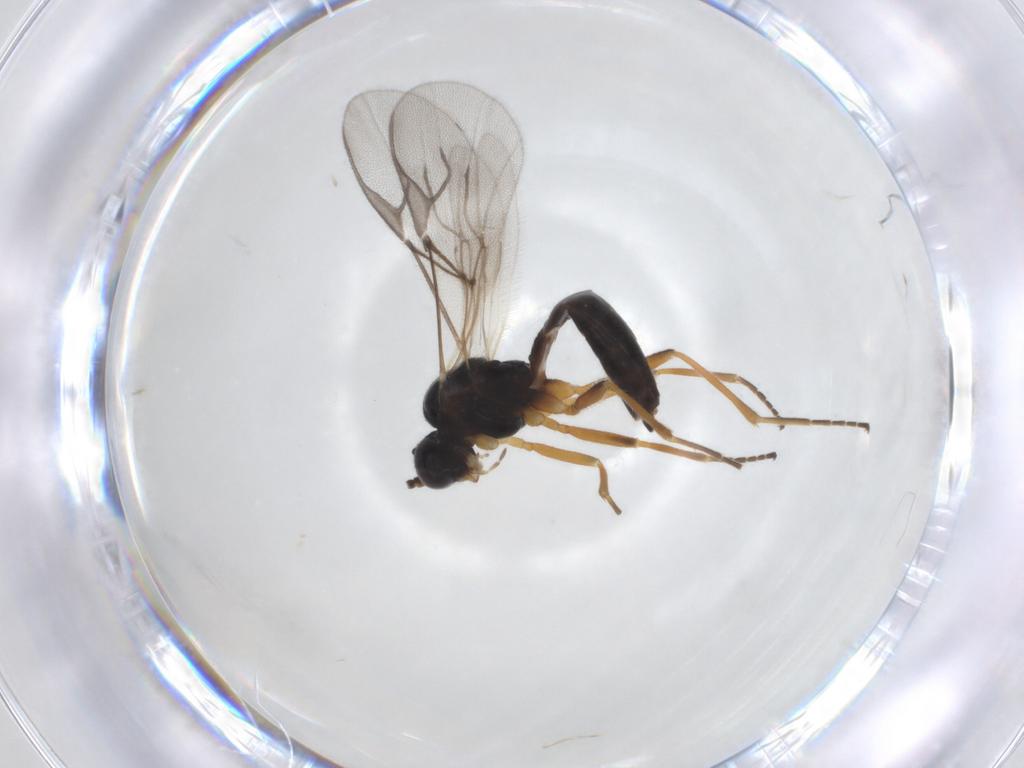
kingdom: Animalia
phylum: Arthropoda
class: Insecta
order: Hymenoptera
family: Braconidae
